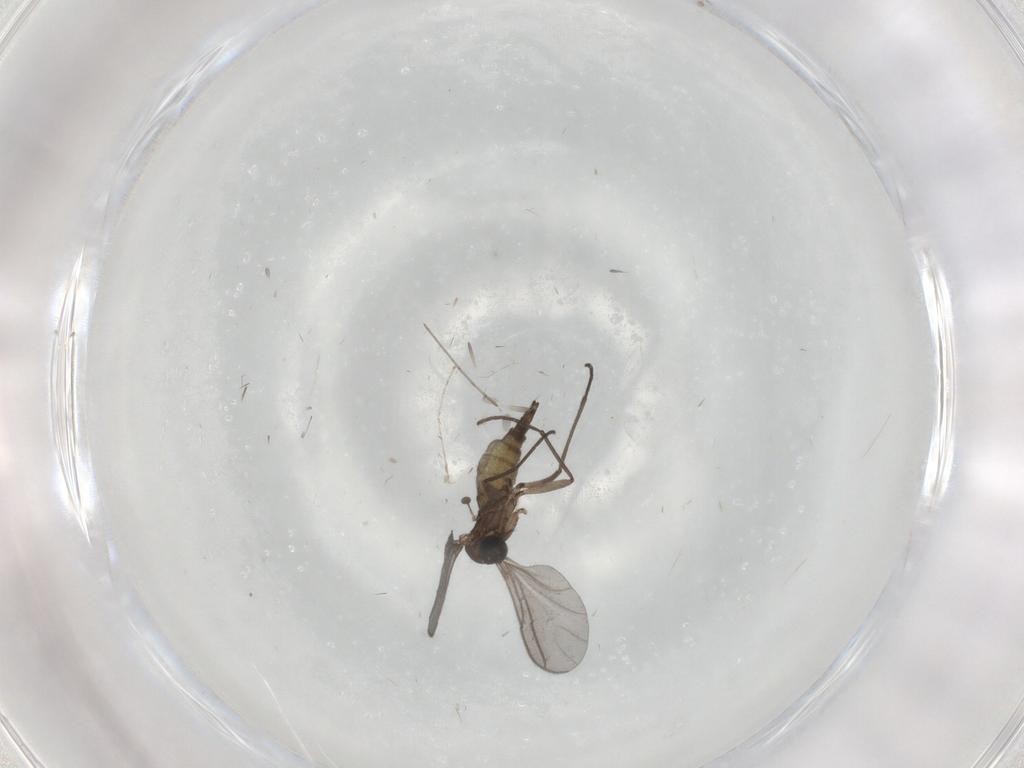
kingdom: Animalia
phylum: Arthropoda
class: Insecta
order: Diptera
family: Cecidomyiidae
